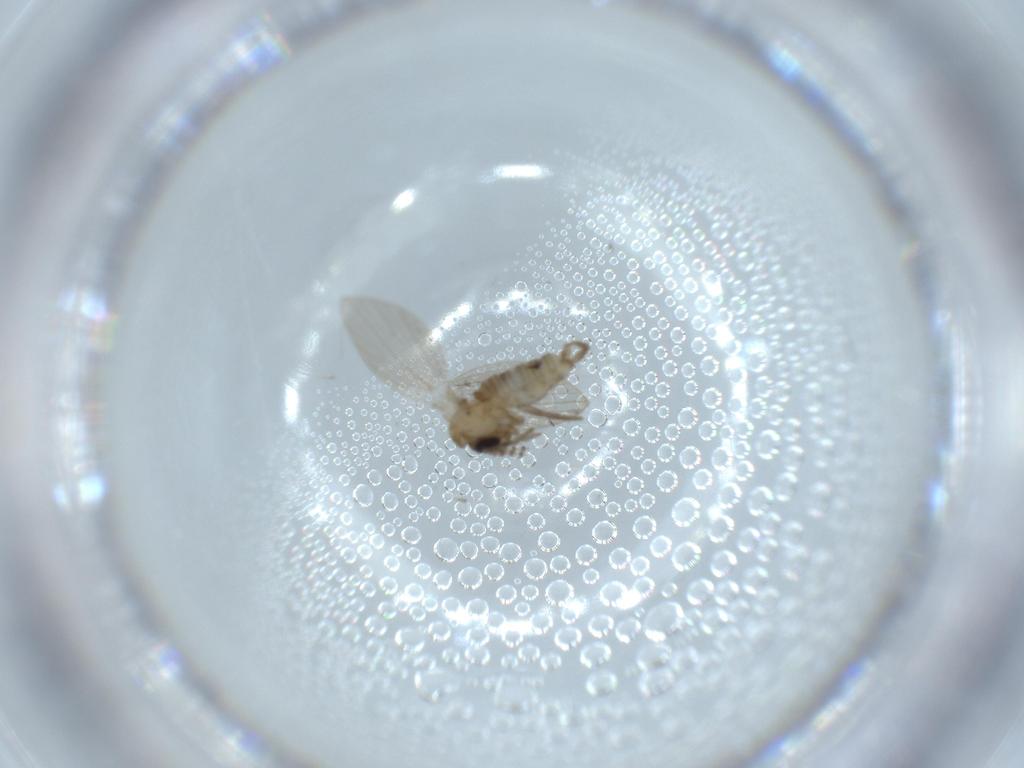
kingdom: Animalia
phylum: Arthropoda
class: Insecta
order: Diptera
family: Psychodidae
